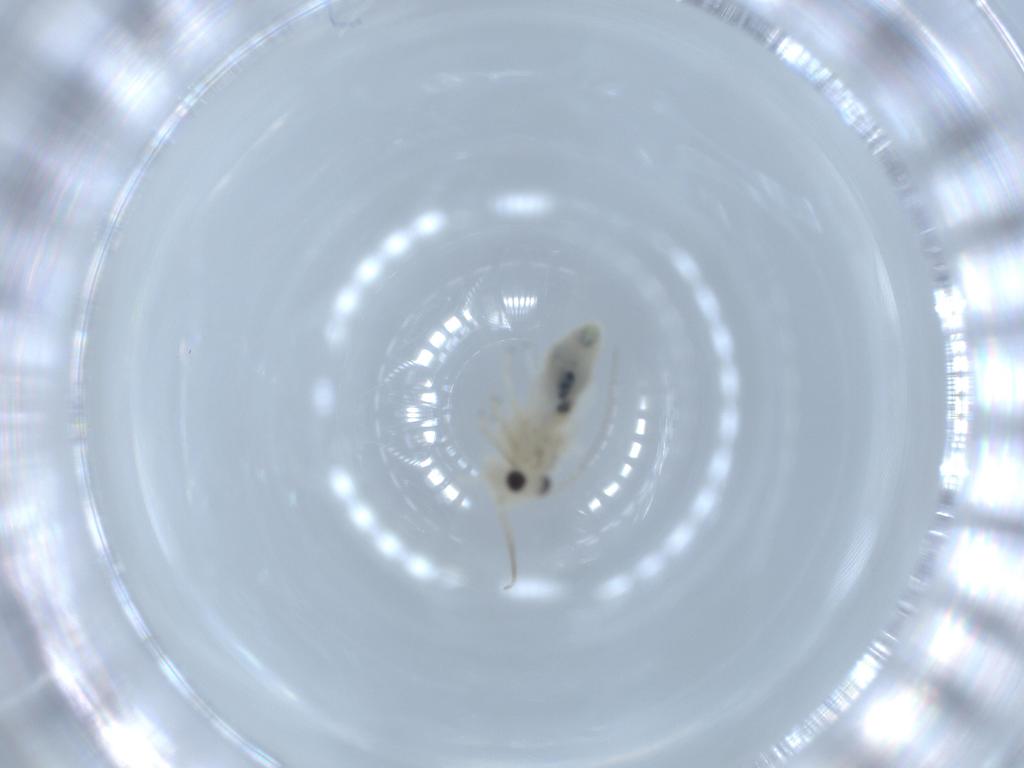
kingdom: Animalia
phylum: Arthropoda
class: Insecta
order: Psocodea
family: Caeciliusidae
